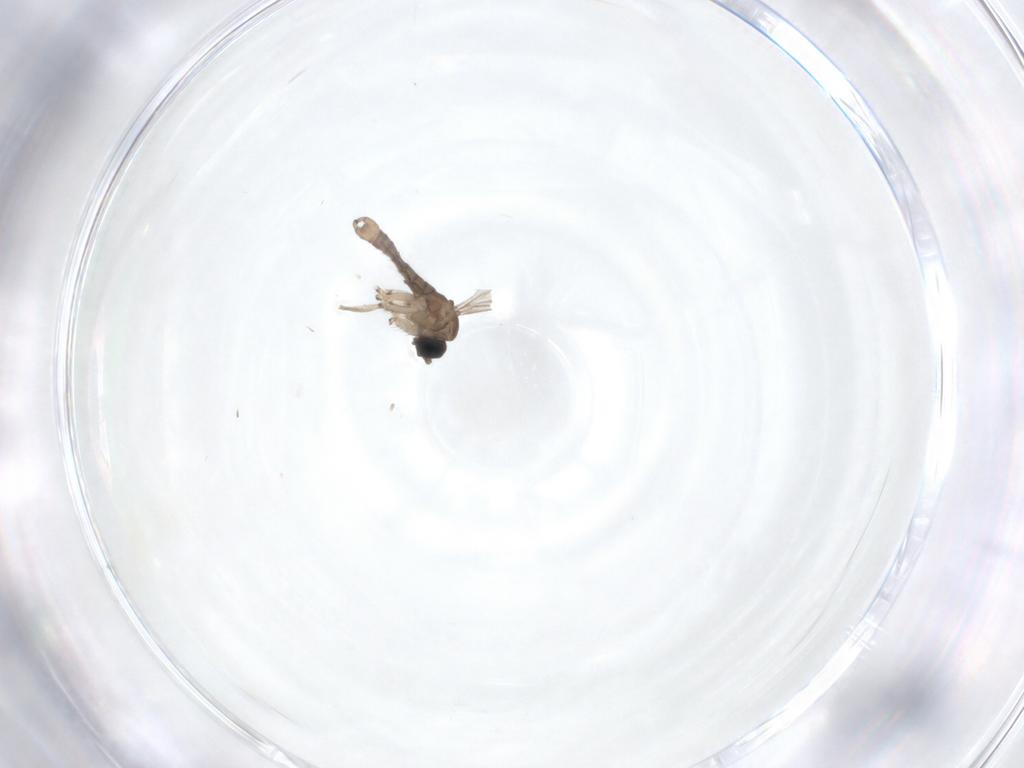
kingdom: Animalia
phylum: Arthropoda
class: Insecta
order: Diptera
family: Sciaridae
